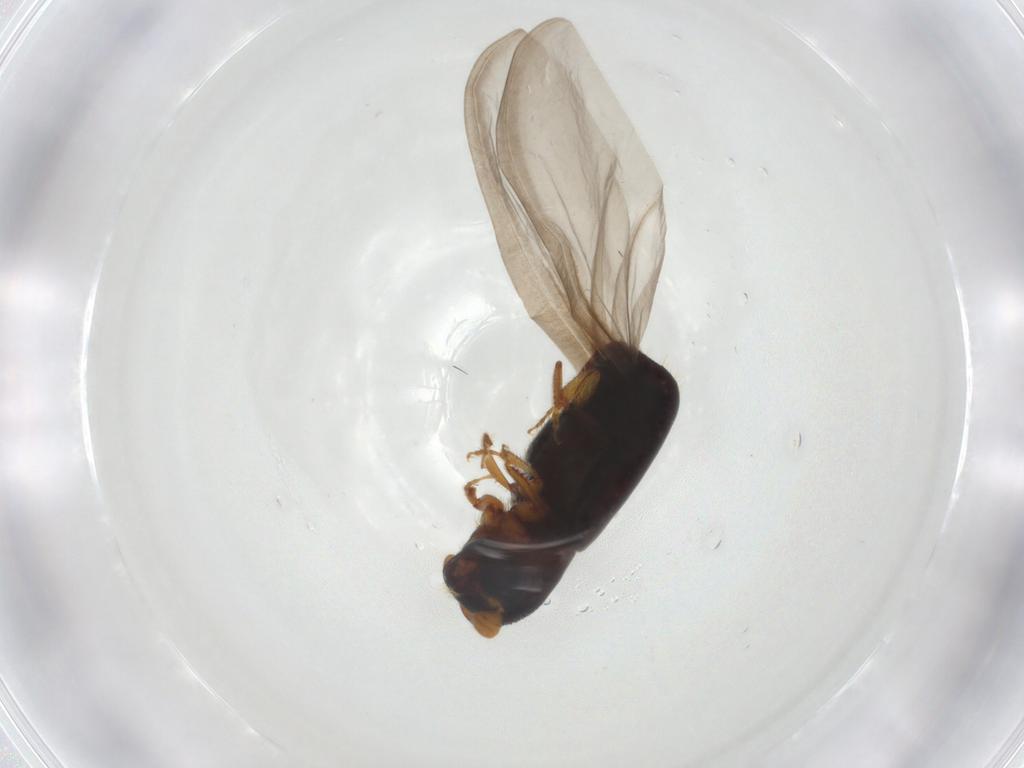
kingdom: Animalia
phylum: Arthropoda
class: Insecta
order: Coleoptera
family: Curculionidae
